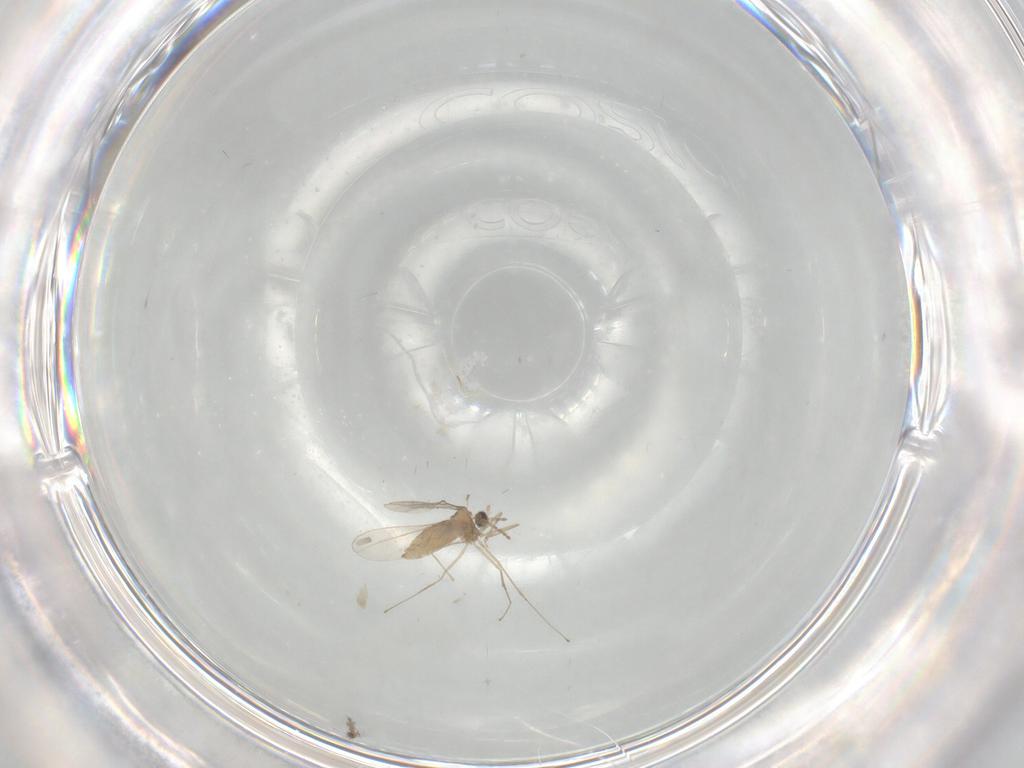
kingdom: Animalia
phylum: Arthropoda
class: Insecta
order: Diptera
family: Cecidomyiidae
